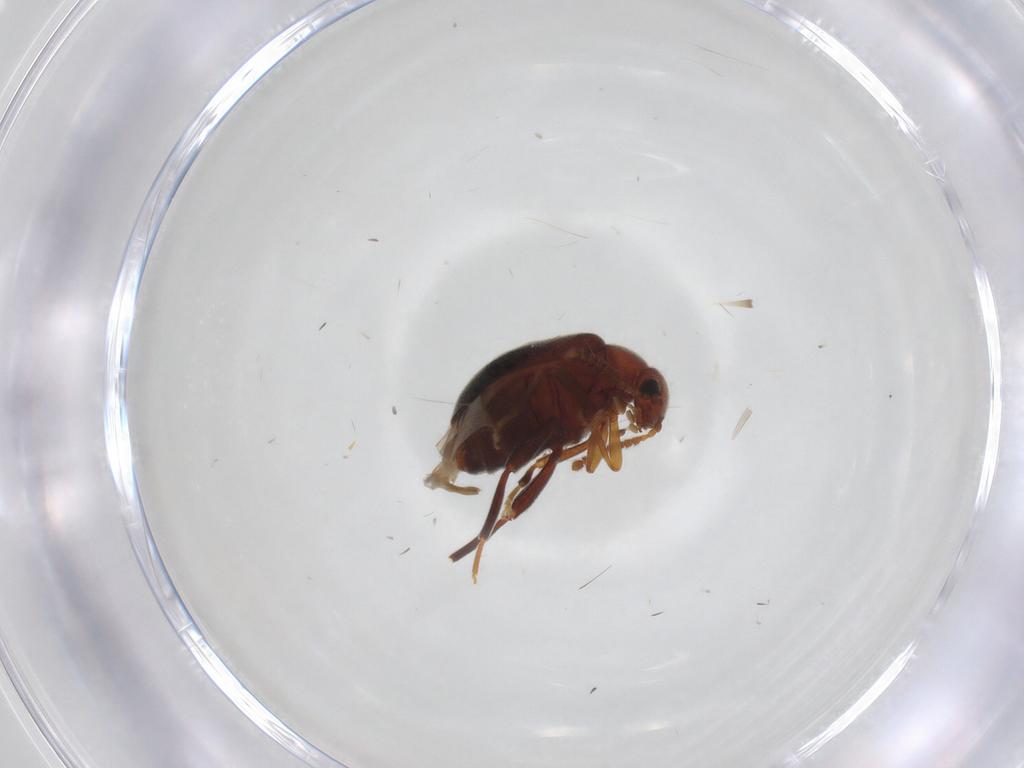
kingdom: Animalia
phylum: Arthropoda
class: Insecta
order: Coleoptera
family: Aderidae
